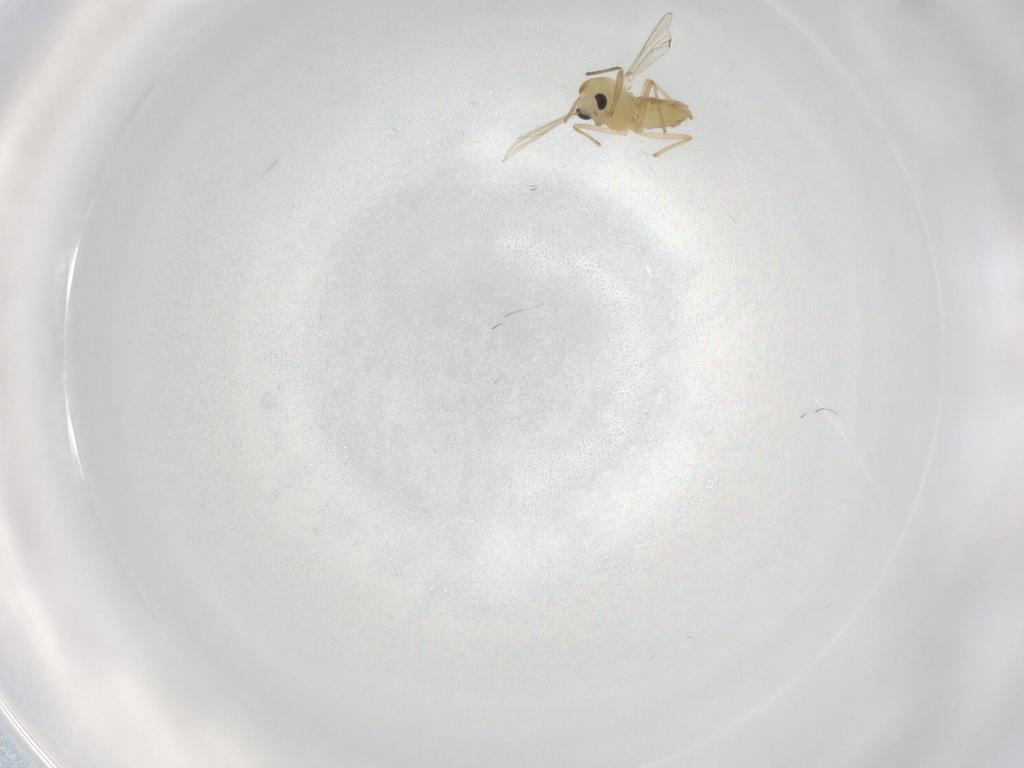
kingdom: Animalia
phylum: Arthropoda
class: Insecta
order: Diptera
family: Chironomidae
